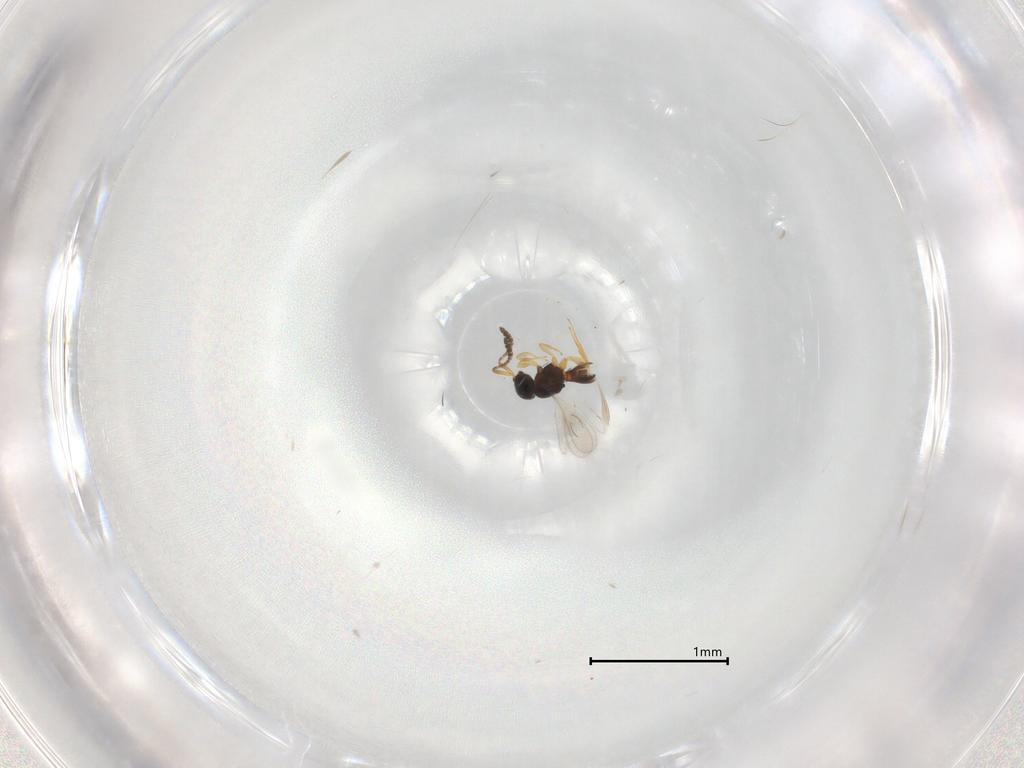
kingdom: Animalia
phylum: Arthropoda
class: Insecta
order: Hymenoptera
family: Scelionidae
